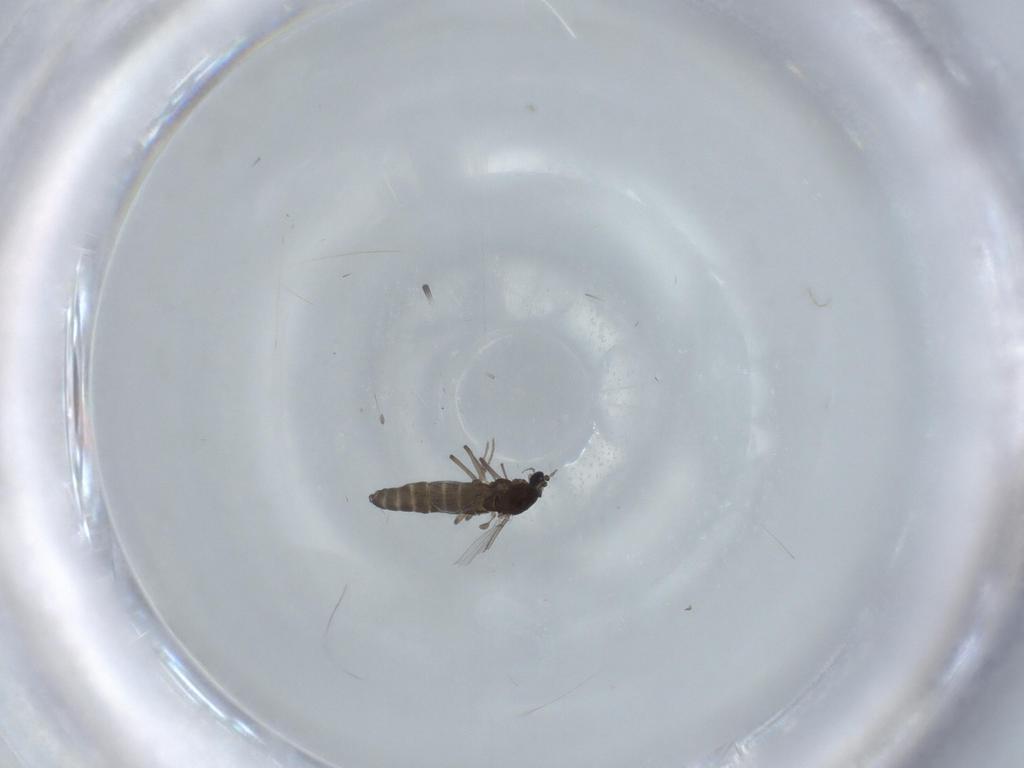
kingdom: Animalia
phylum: Arthropoda
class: Insecta
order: Diptera
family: Chironomidae
